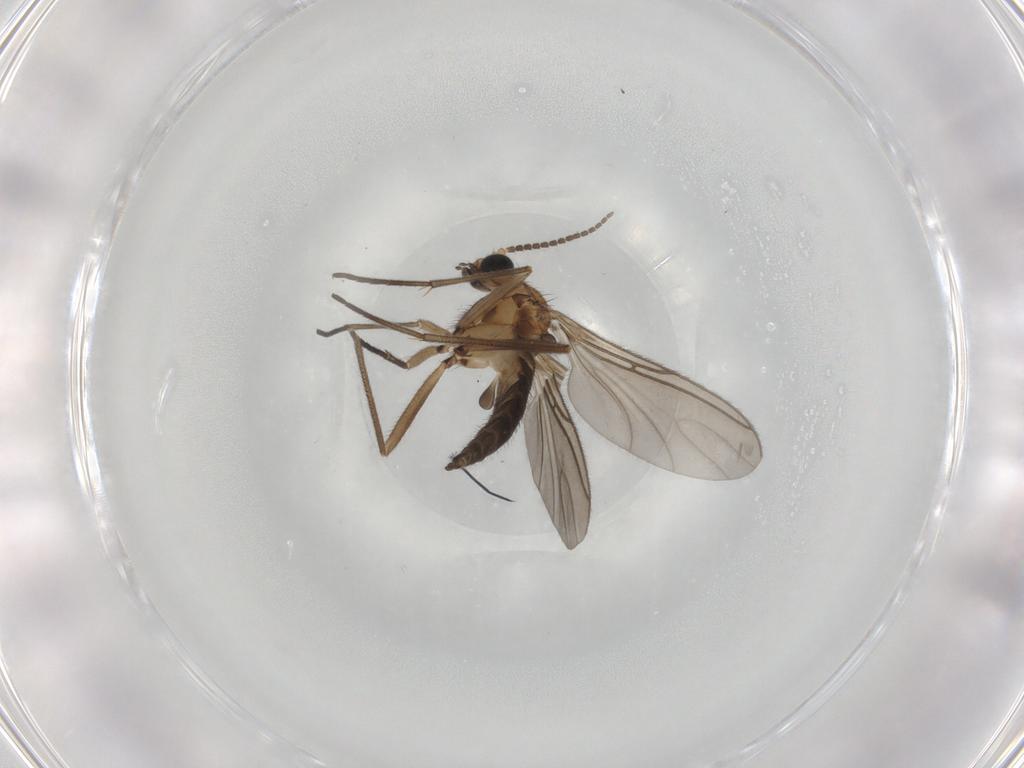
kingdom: Animalia
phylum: Arthropoda
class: Insecta
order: Diptera
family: Sciaridae
